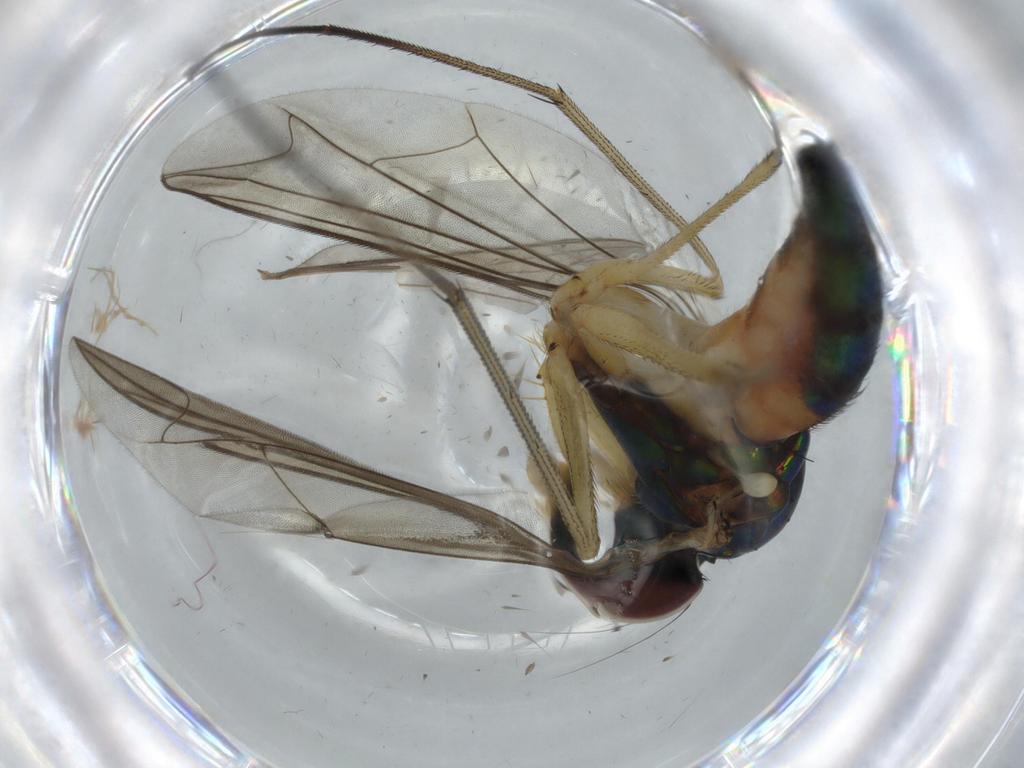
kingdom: Animalia
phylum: Arthropoda
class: Insecta
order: Diptera
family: Dolichopodidae
